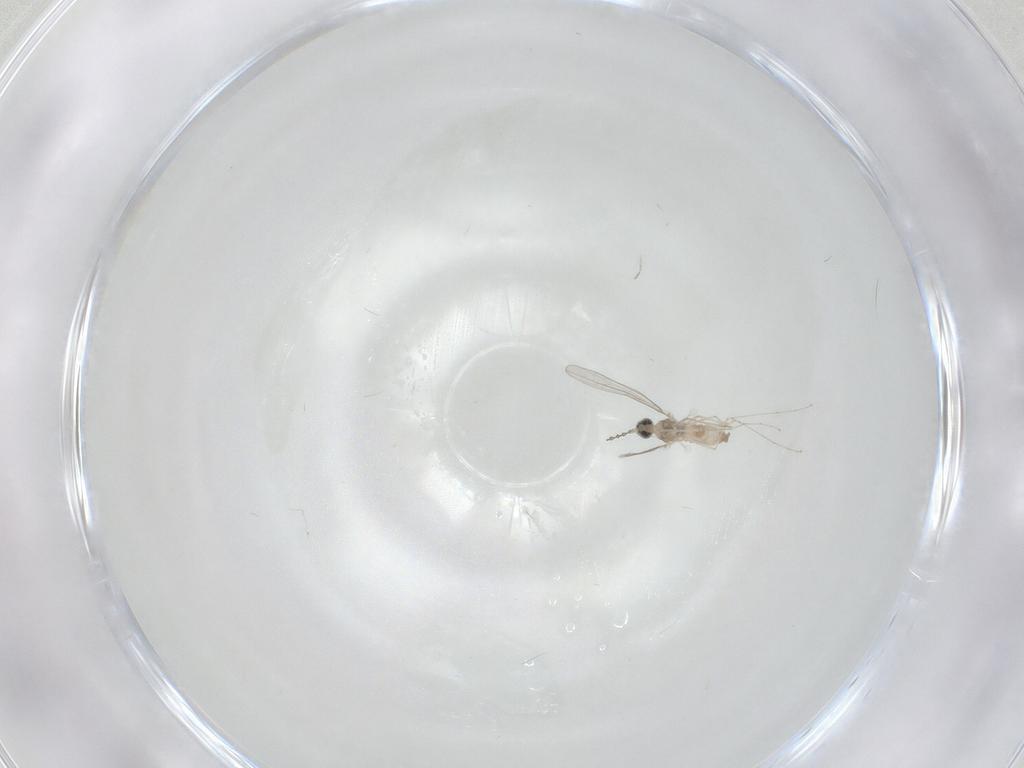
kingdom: Animalia
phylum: Arthropoda
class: Insecta
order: Diptera
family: Cecidomyiidae
